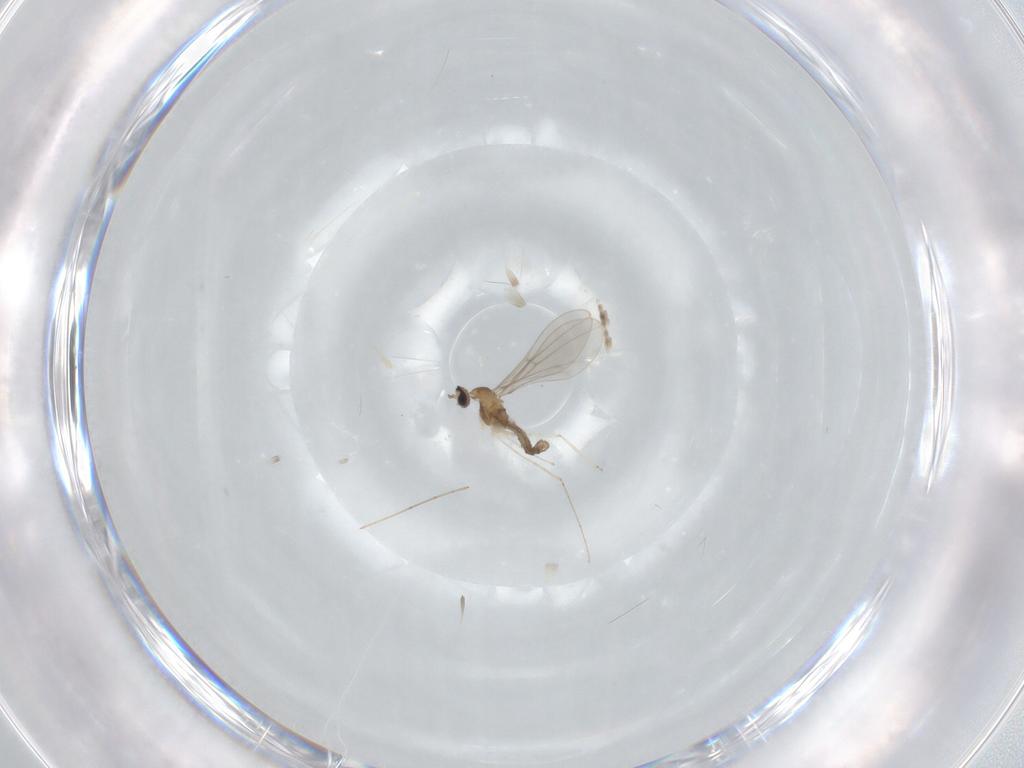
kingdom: Animalia
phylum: Arthropoda
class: Insecta
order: Diptera
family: Cecidomyiidae
